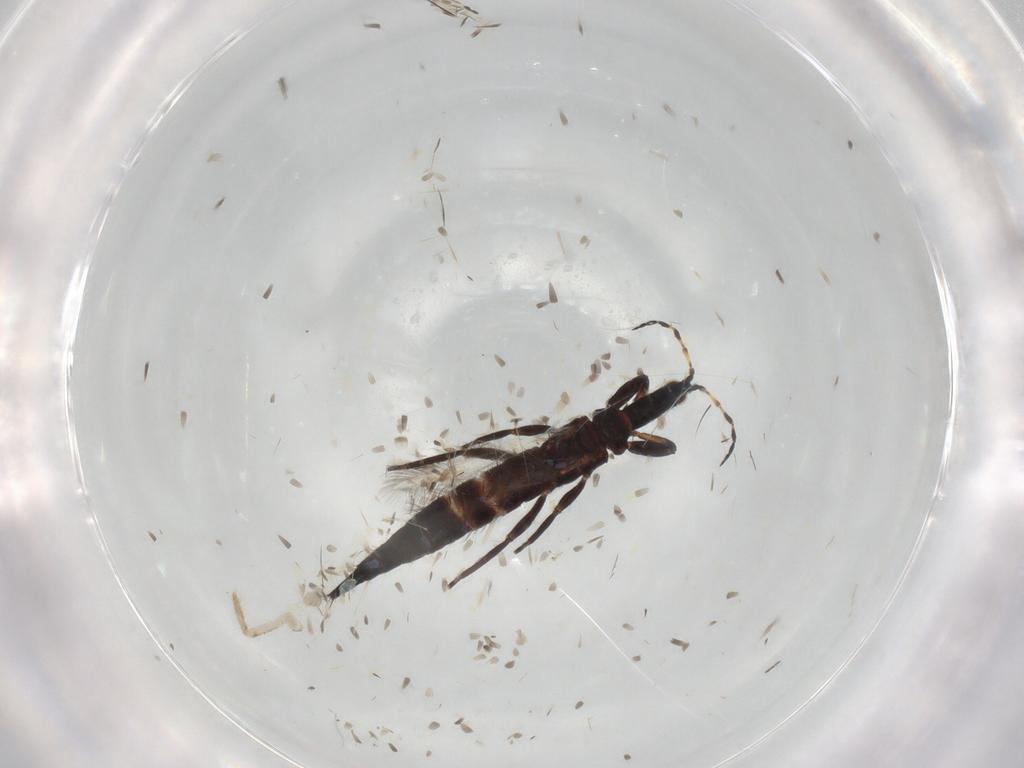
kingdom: Animalia
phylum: Arthropoda
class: Insecta
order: Thysanoptera
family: Phlaeothripidae
